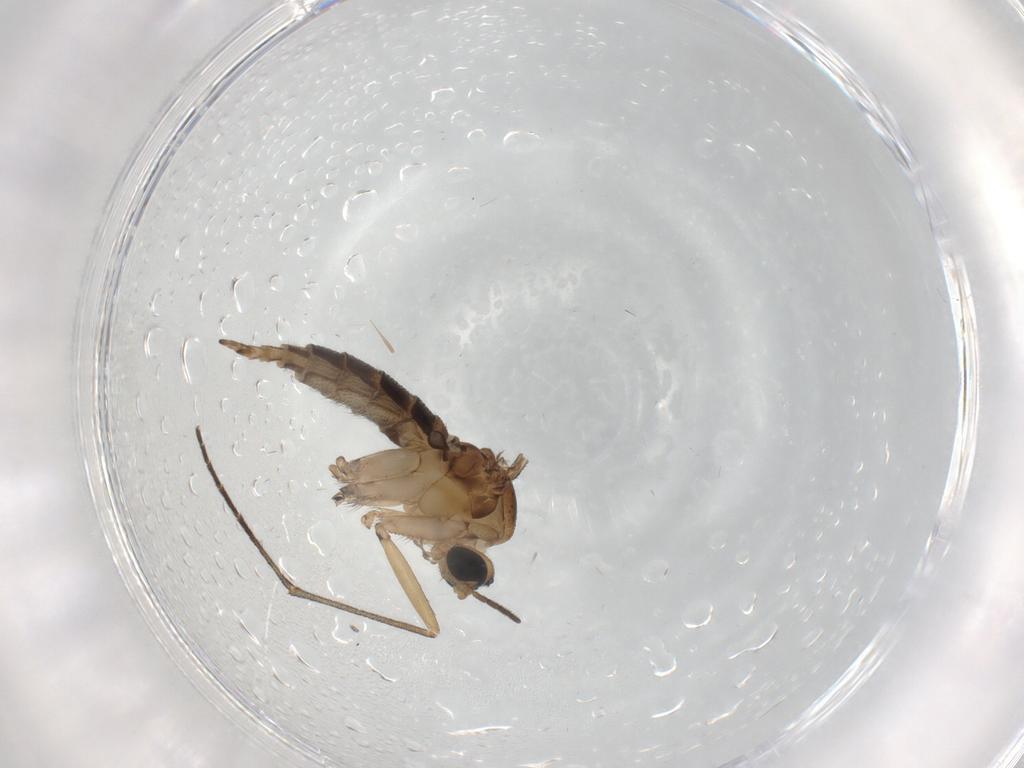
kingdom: Animalia
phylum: Arthropoda
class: Insecta
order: Diptera
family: Sciaridae
